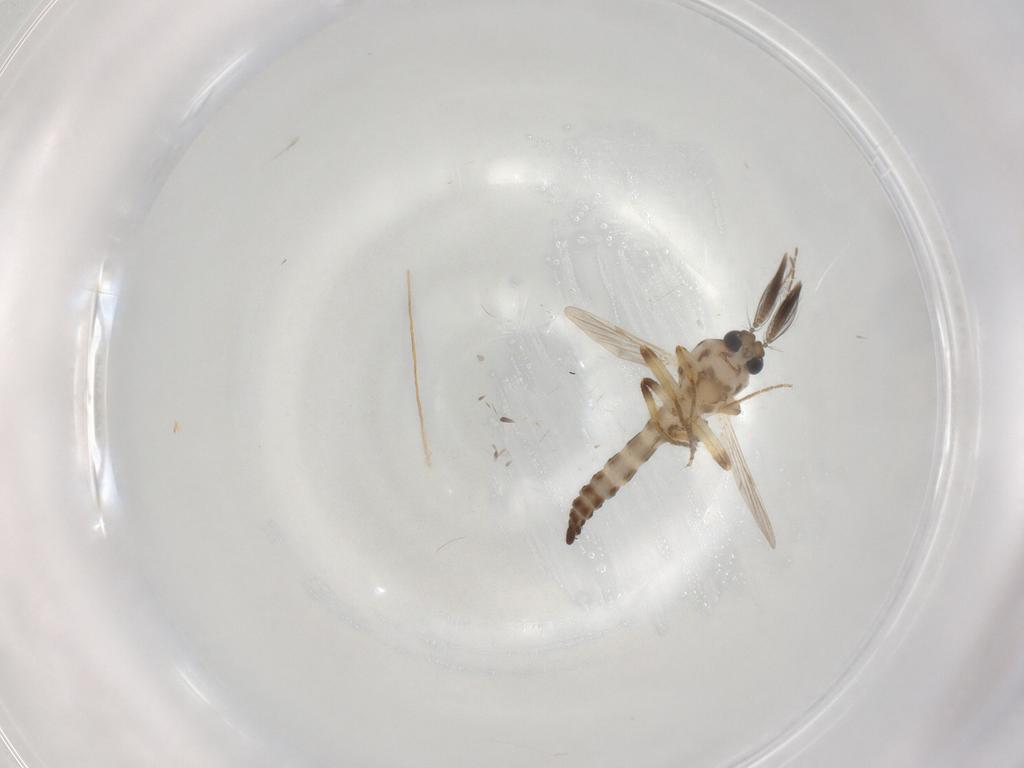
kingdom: Animalia
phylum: Arthropoda
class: Insecta
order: Diptera
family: Ceratopogonidae
